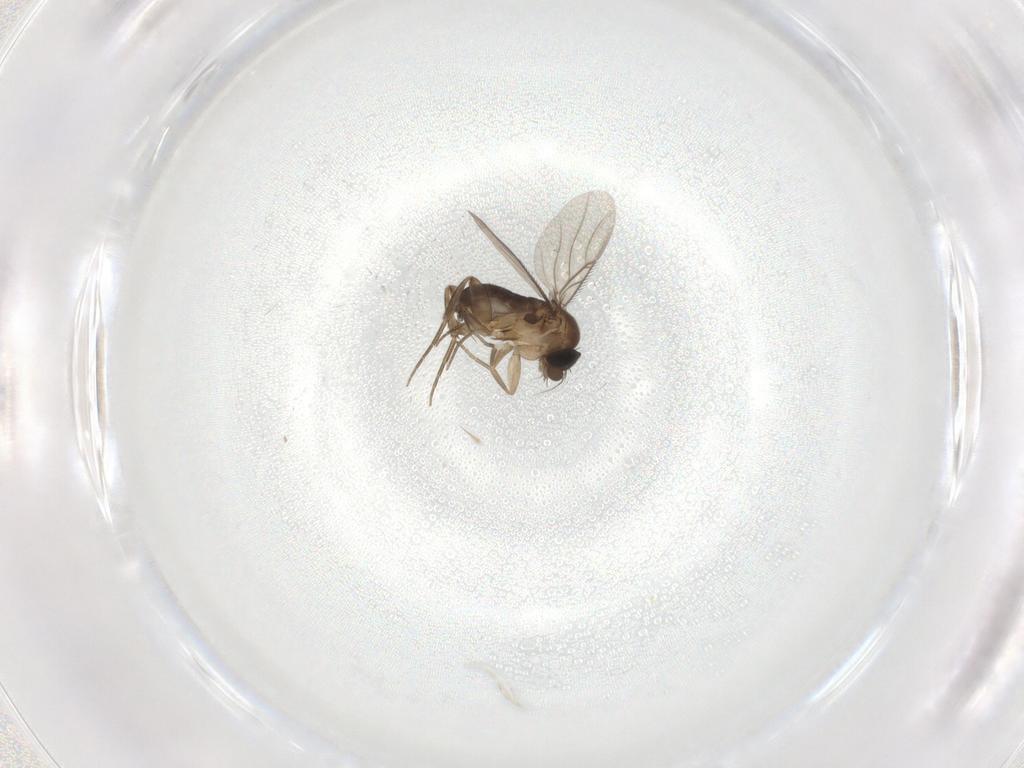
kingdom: Animalia
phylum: Arthropoda
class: Insecta
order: Diptera
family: Phoridae
